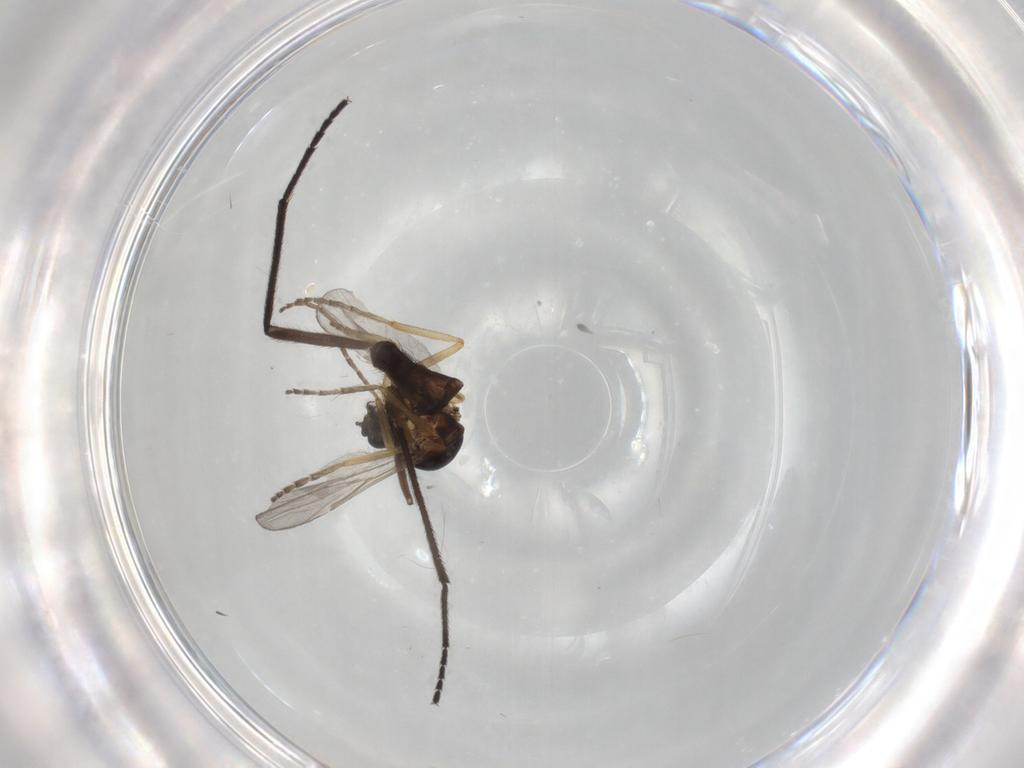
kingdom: Animalia
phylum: Arthropoda
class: Insecta
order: Diptera
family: Ceratopogonidae
